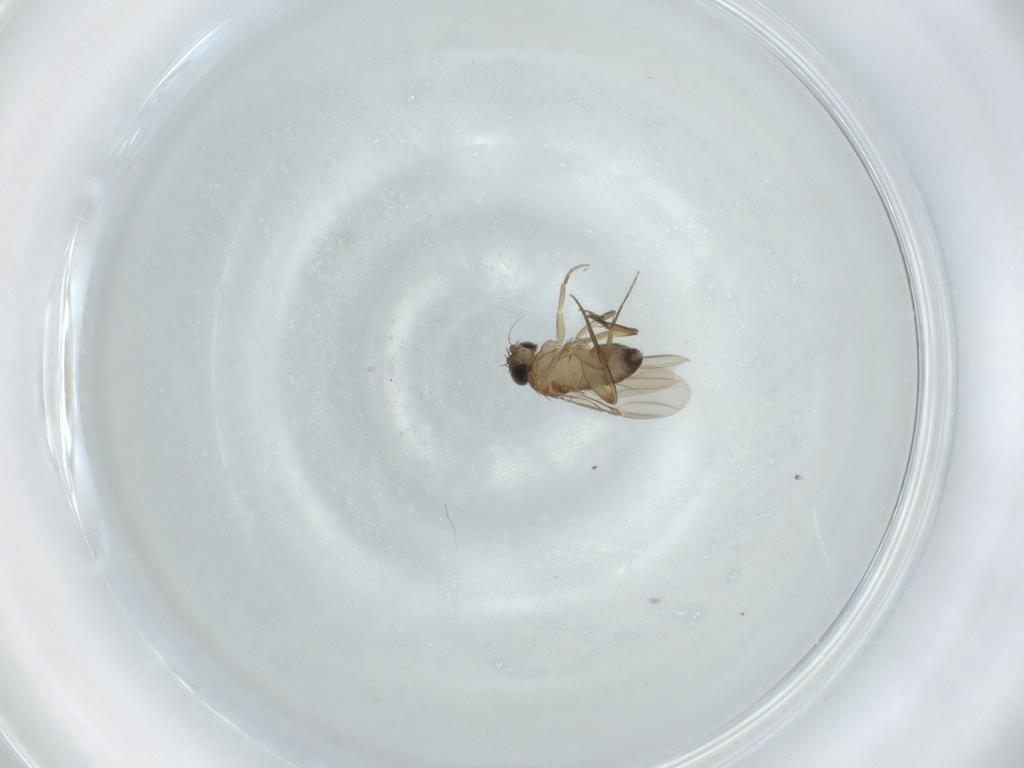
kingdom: Animalia
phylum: Arthropoda
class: Insecta
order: Diptera
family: Phoridae
